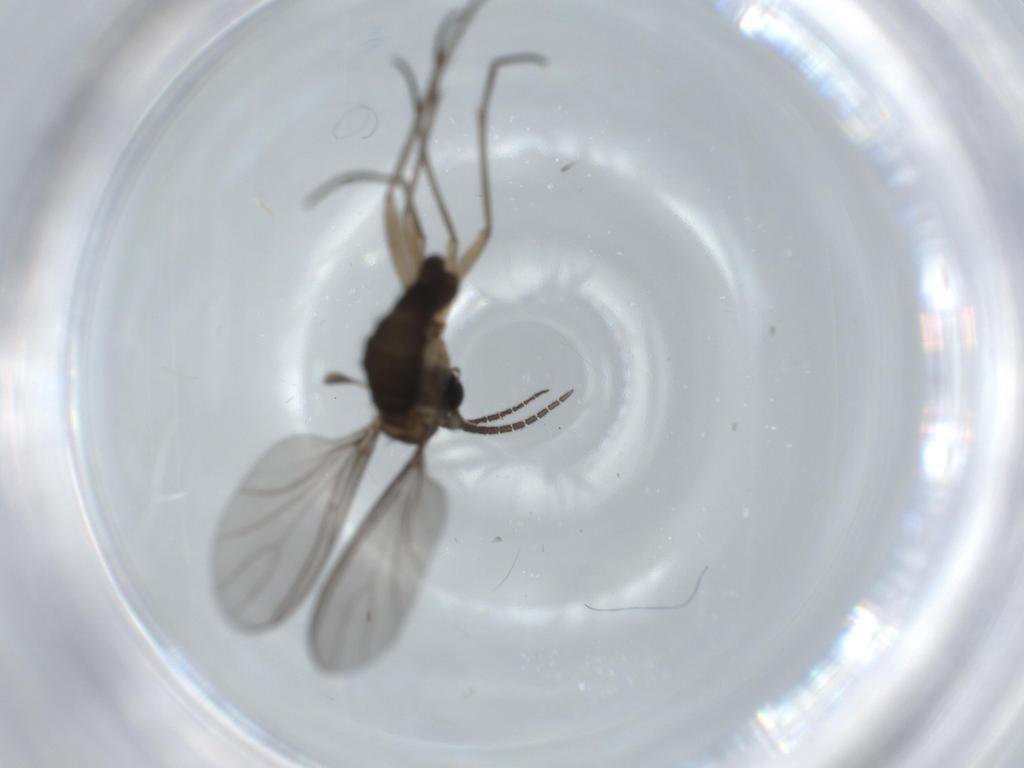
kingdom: Animalia
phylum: Arthropoda
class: Insecta
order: Diptera
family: Sciaridae
